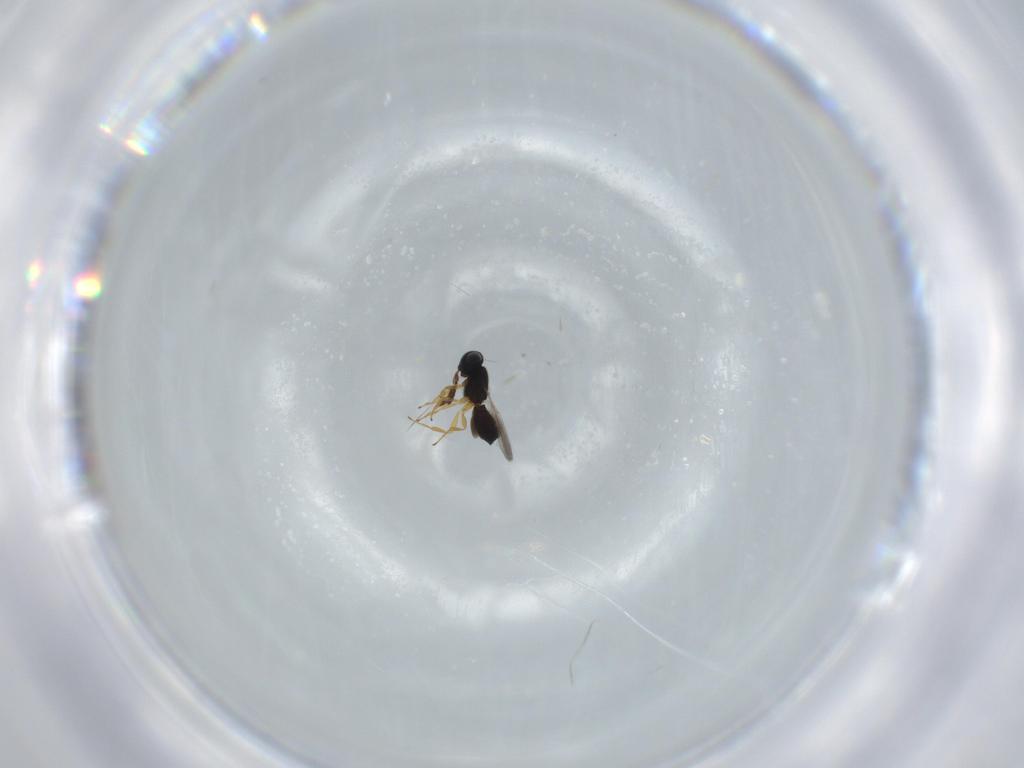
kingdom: Animalia
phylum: Arthropoda
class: Insecta
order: Hymenoptera
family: Scelionidae
